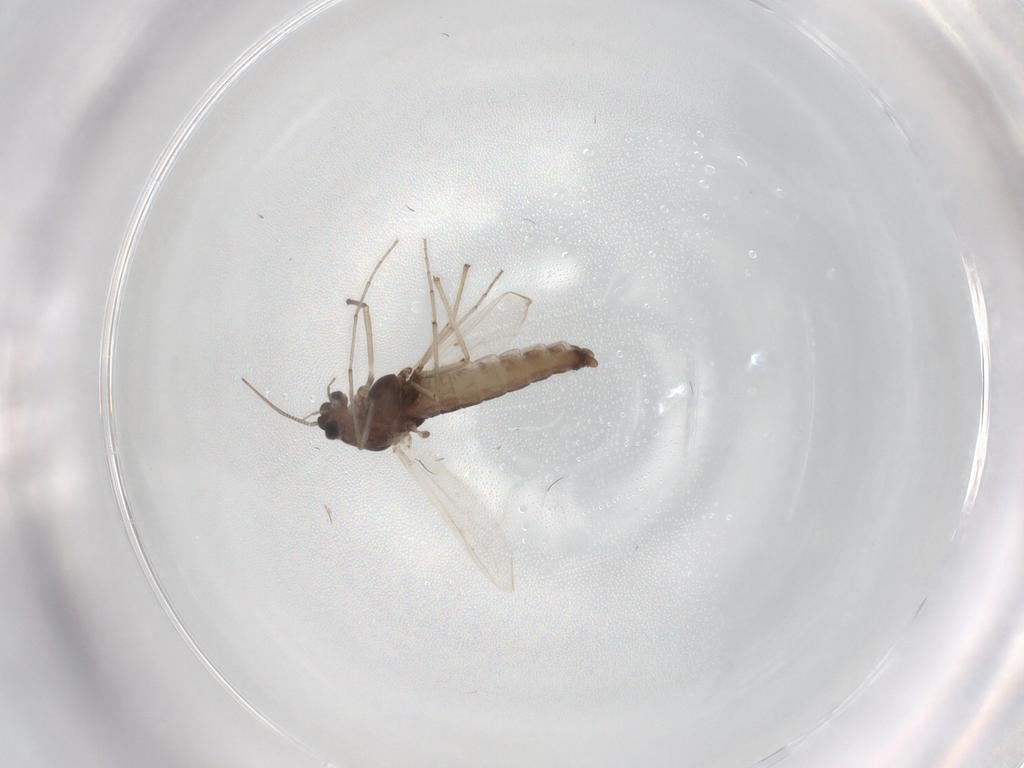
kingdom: Animalia
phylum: Arthropoda
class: Insecta
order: Diptera
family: Cecidomyiidae
